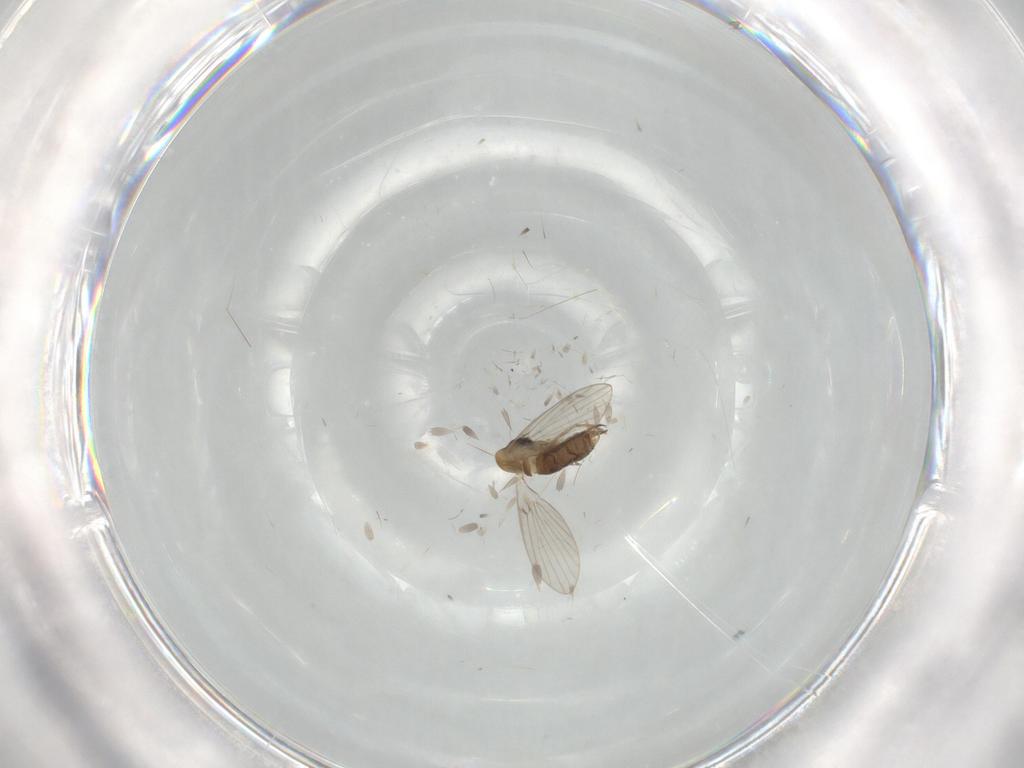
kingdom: Animalia
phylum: Arthropoda
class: Insecta
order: Diptera
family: Psychodidae
